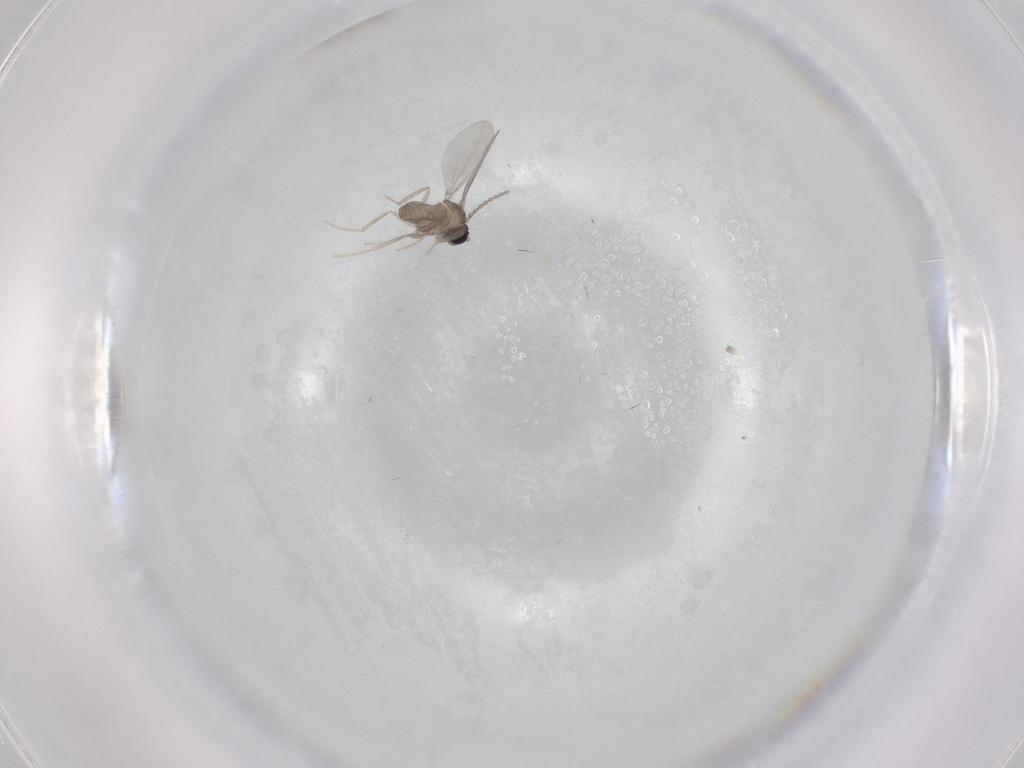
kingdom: Animalia
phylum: Arthropoda
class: Insecta
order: Diptera
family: Cecidomyiidae
